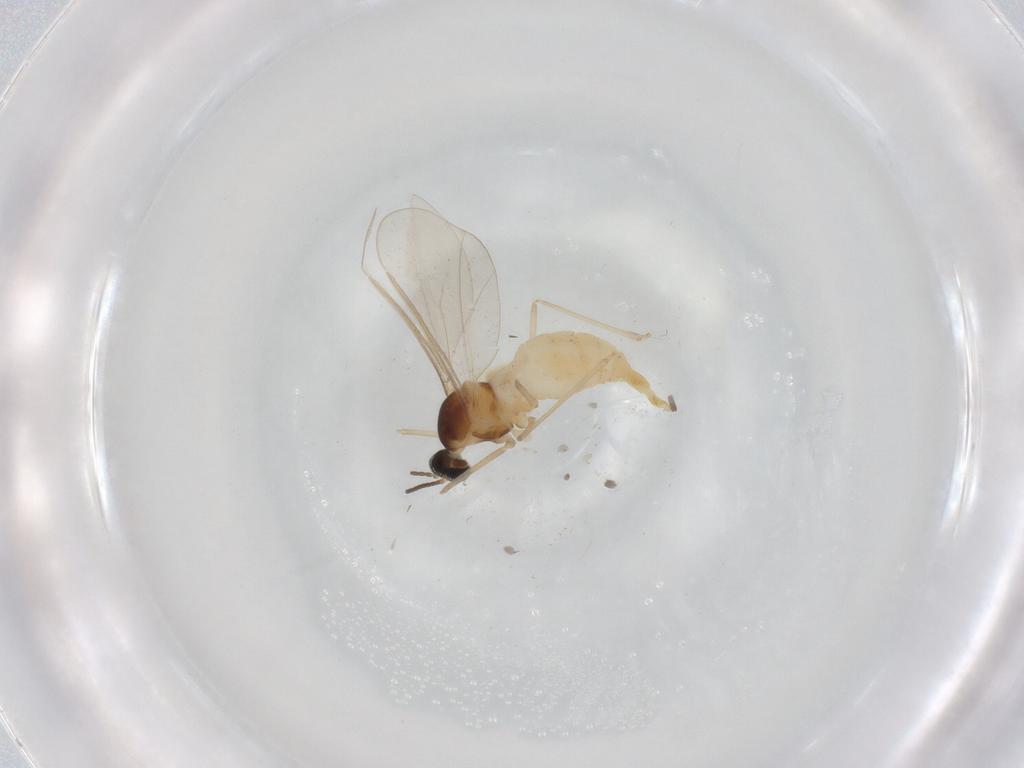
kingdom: Animalia
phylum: Arthropoda
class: Insecta
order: Diptera
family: Cecidomyiidae
